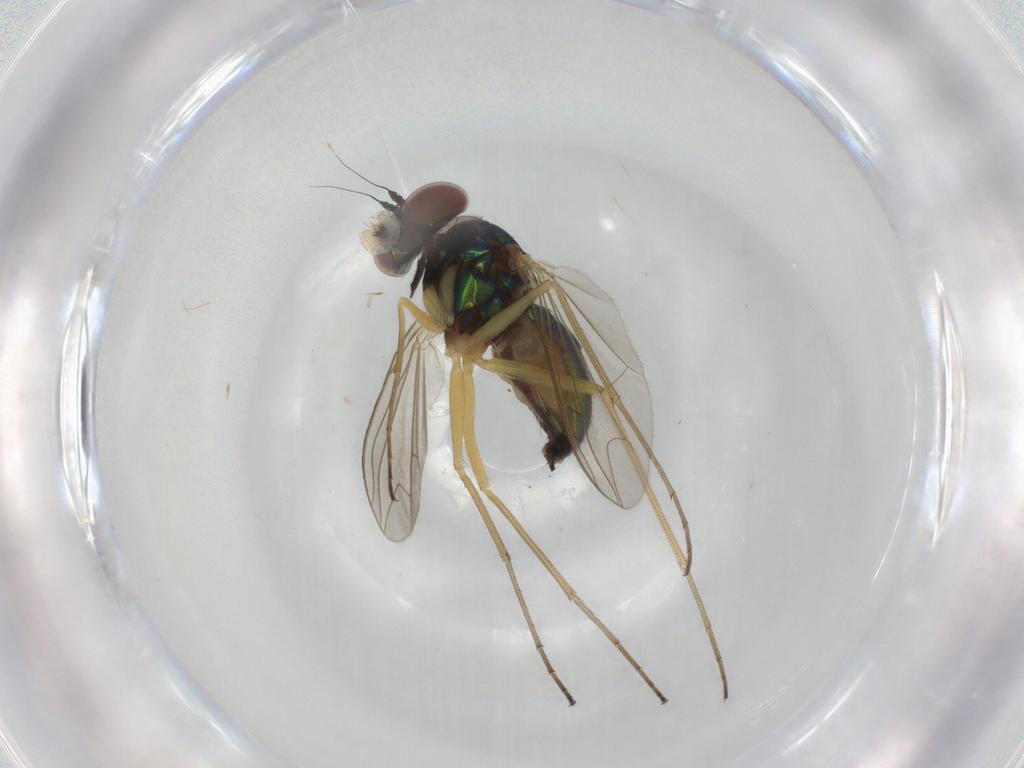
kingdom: Animalia
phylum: Arthropoda
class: Insecta
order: Diptera
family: Dolichopodidae
